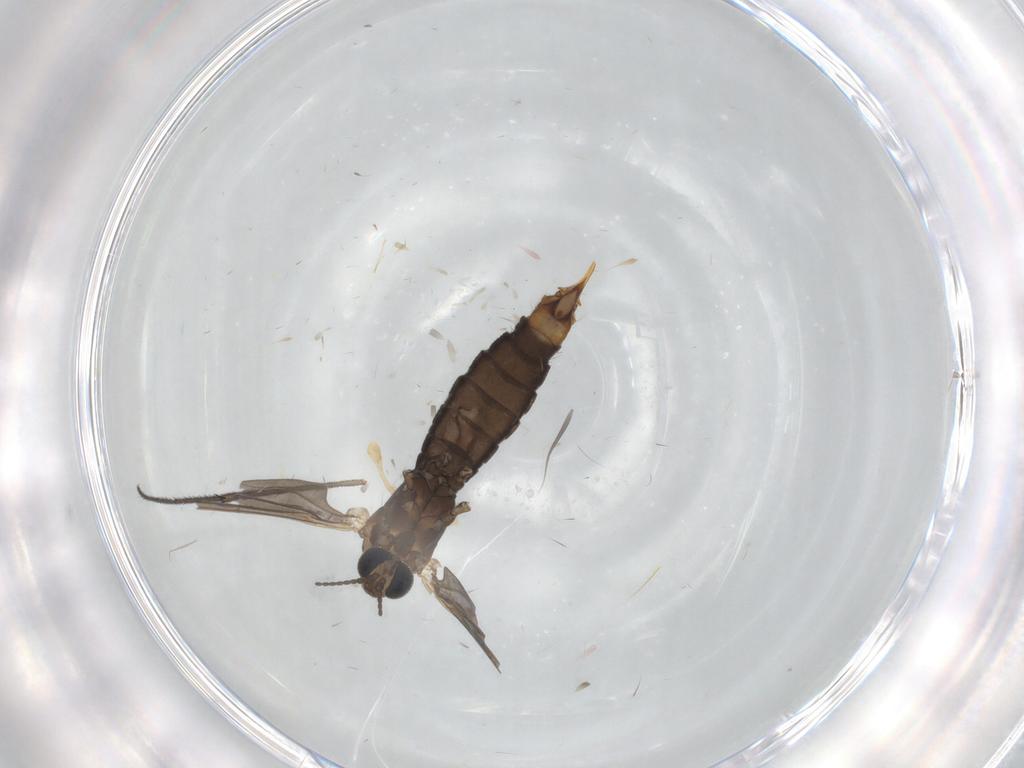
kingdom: Animalia
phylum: Arthropoda
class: Insecta
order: Diptera
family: Limoniidae
